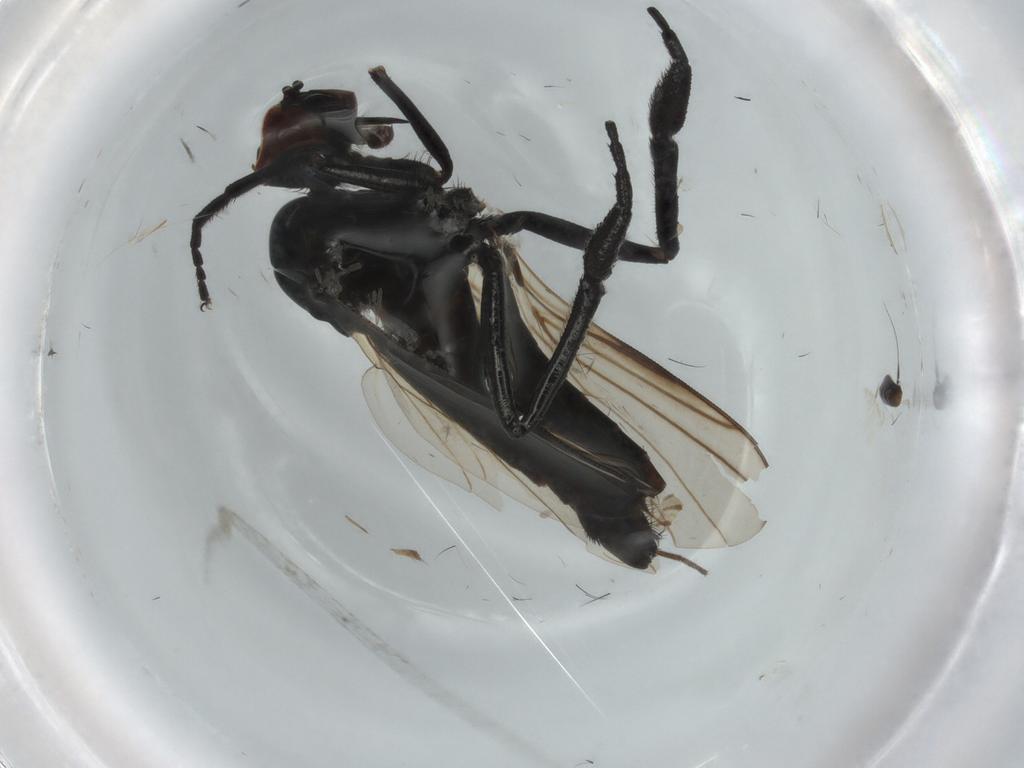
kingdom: Animalia
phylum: Arthropoda
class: Insecta
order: Diptera
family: Empididae
